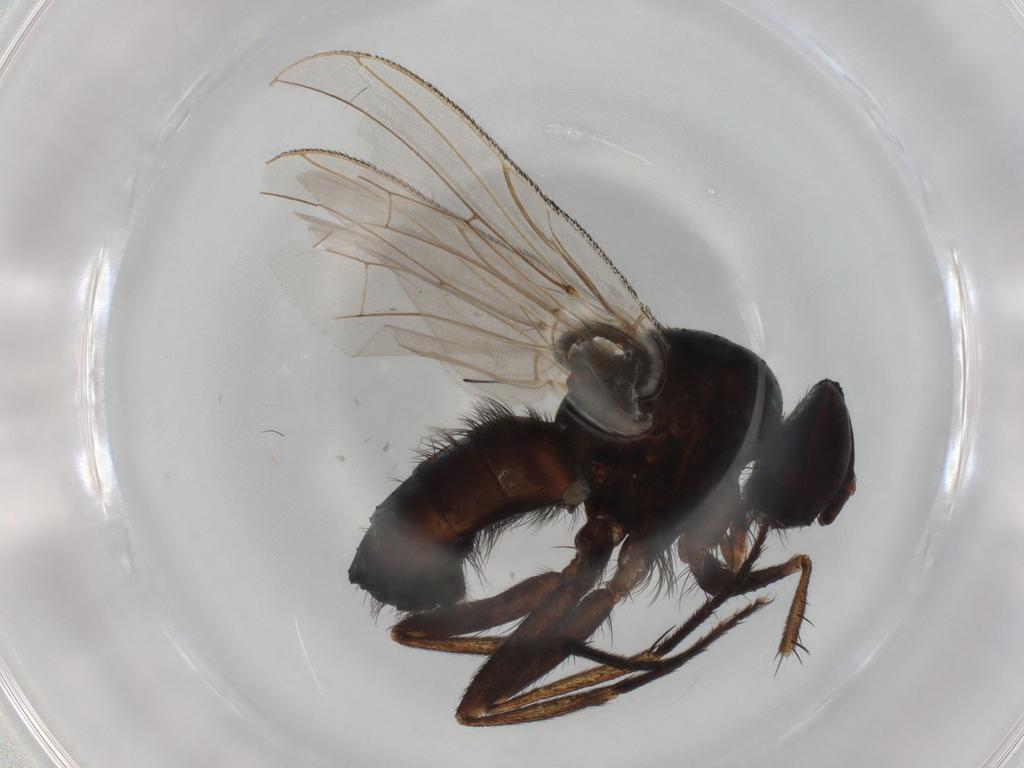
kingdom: Animalia
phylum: Arthropoda
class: Insecta
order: Diptera
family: Calliphoridae
